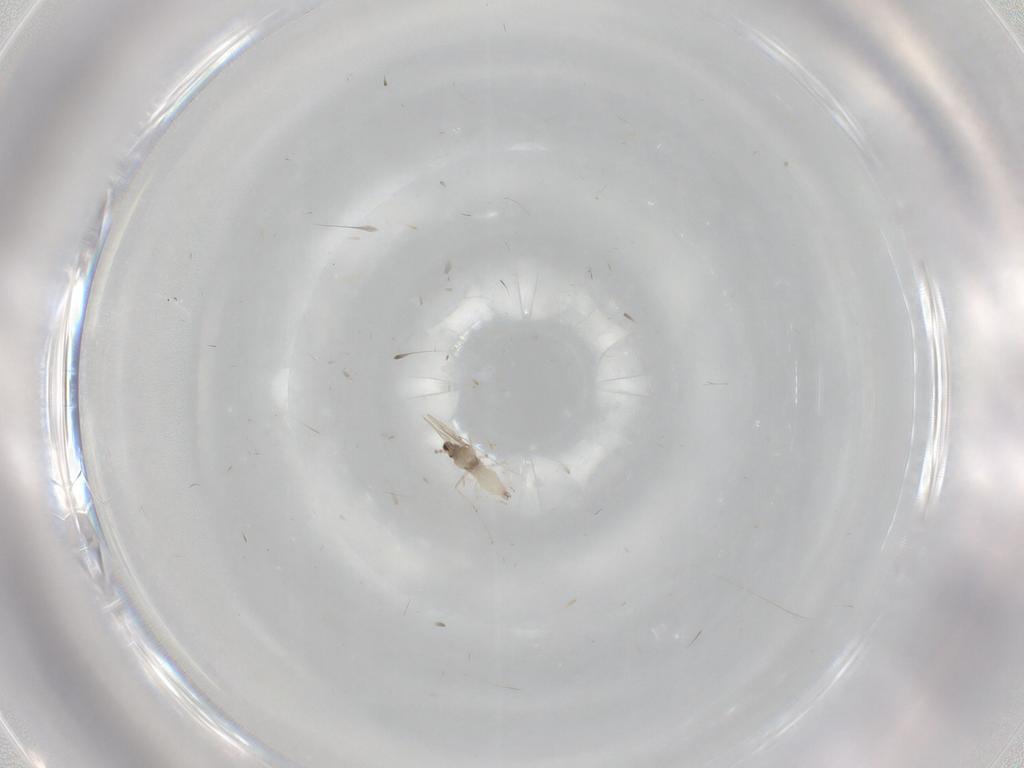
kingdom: Animalia
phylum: Arthropoda
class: Insecta
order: Diptera
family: Cecidomyiidae
